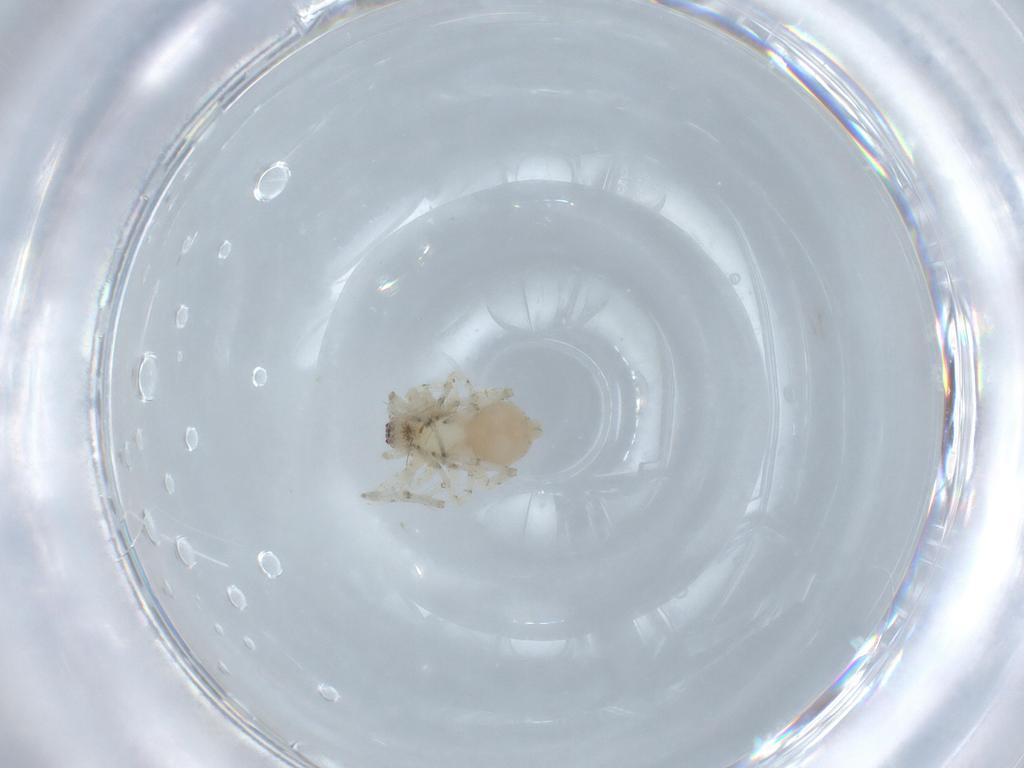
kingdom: Animalia
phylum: Arthropoda
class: Arachnida
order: Araneae
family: Anyphaenidae
